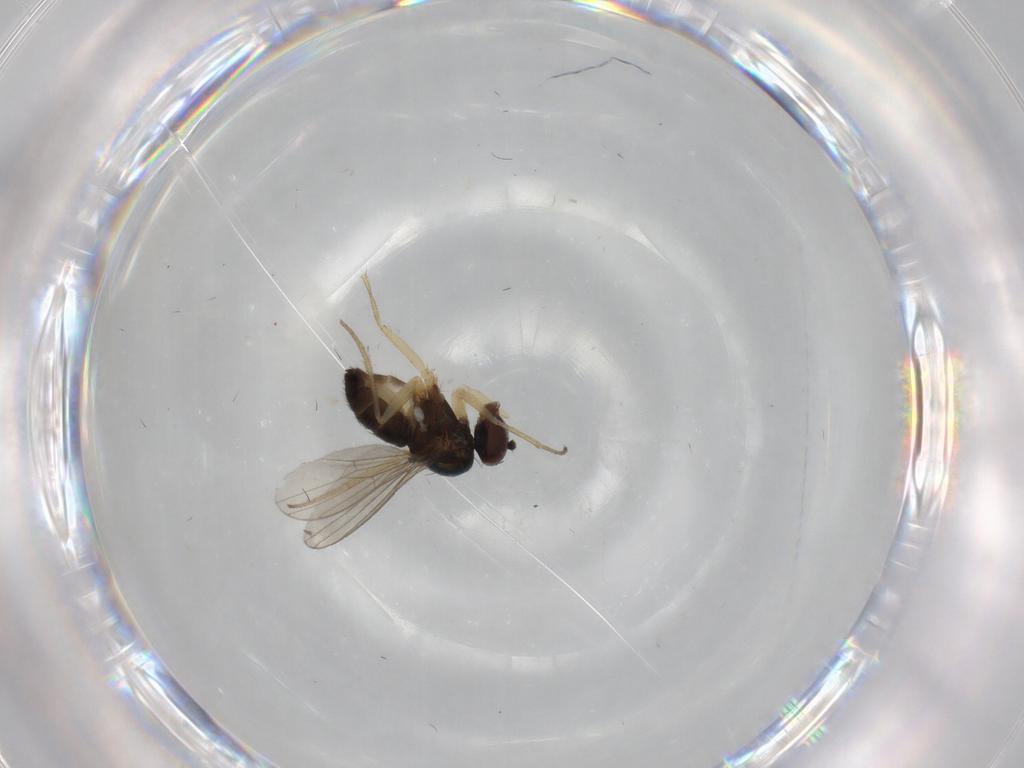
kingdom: Animalia
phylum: Arthropoda
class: Insecta
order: Diptera
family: Dolichopodidae
